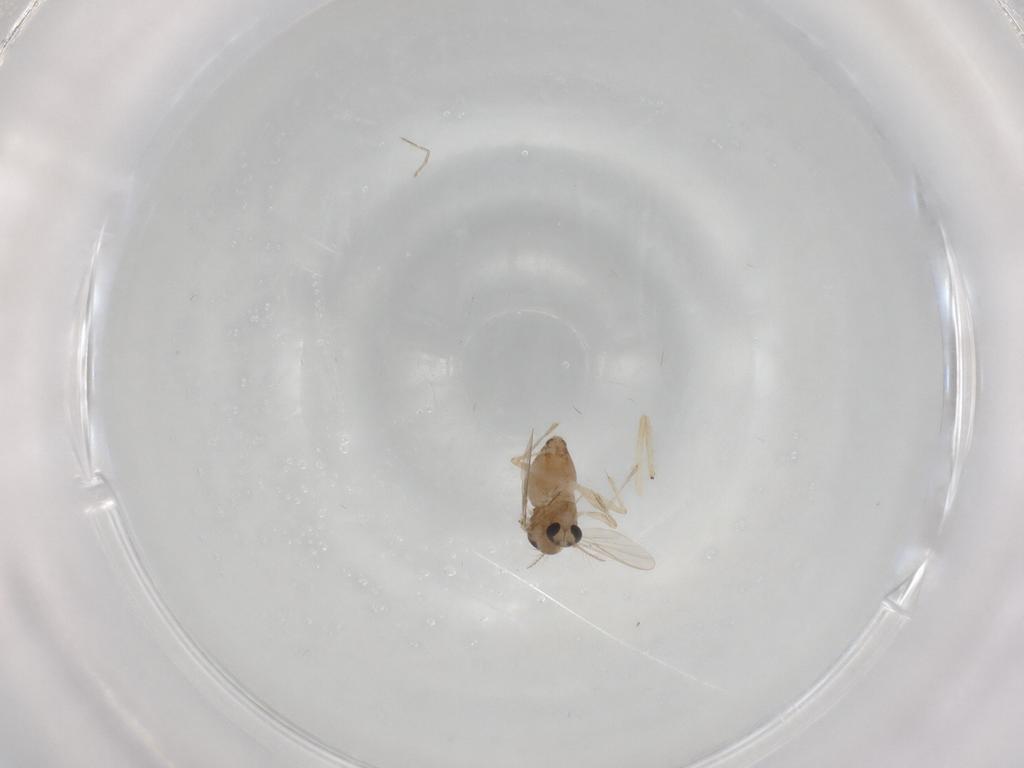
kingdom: Animalia
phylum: Arthropoda
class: Insecta
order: Diptera
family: Chironomidae
